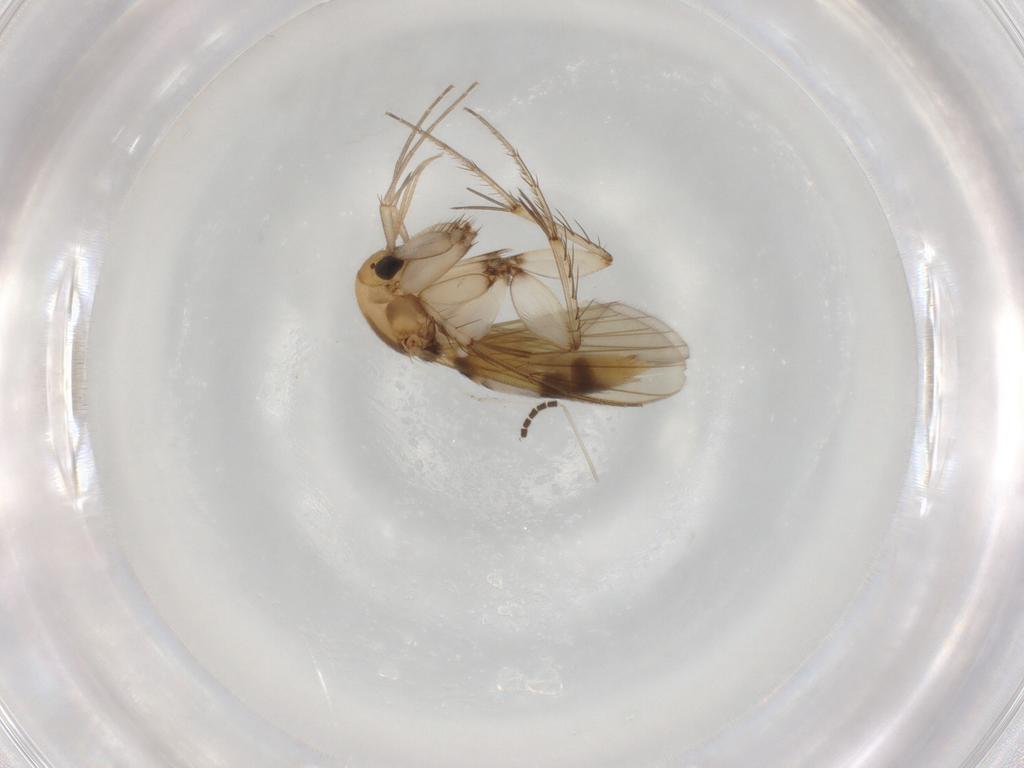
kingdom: Animalia
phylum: Arthropoda
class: Insecta
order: Diptera
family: Mycetophilidae
